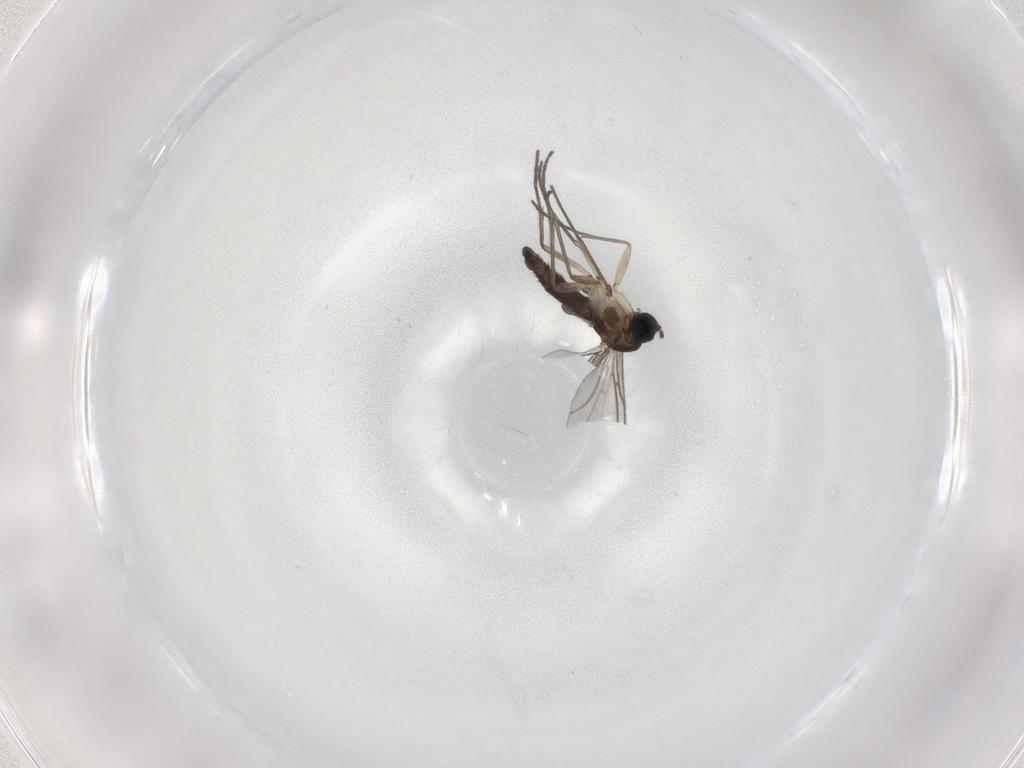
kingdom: Animalia
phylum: Arthropoda
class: Insecta
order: Diptera
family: Sciaridae
